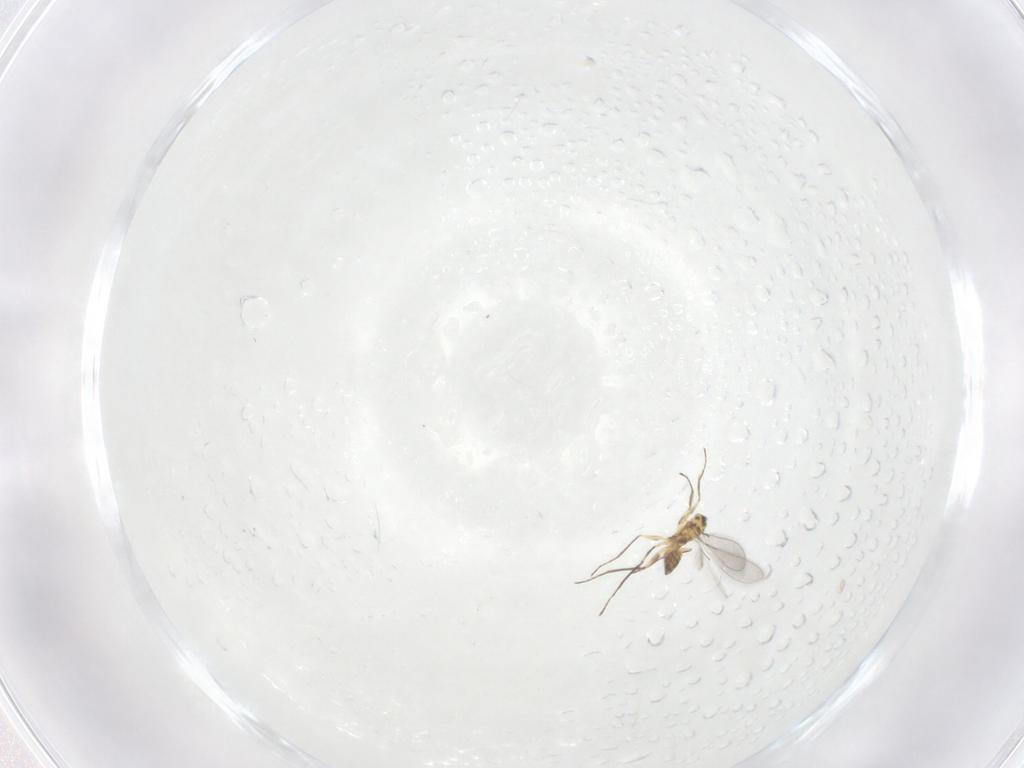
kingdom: Animalia
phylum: Arthropoda
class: Insecta
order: Hymenoptera
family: Mymaridae
